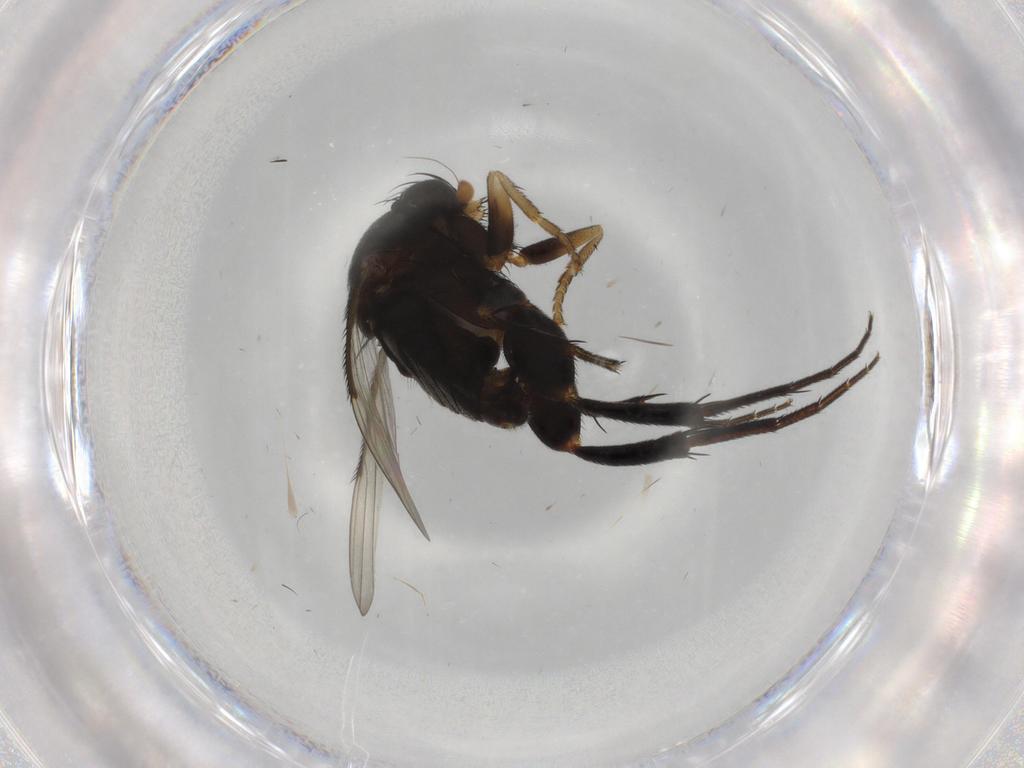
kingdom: Animalia
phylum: Arthropoda
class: Insecta
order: Diptera
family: Phoridae
